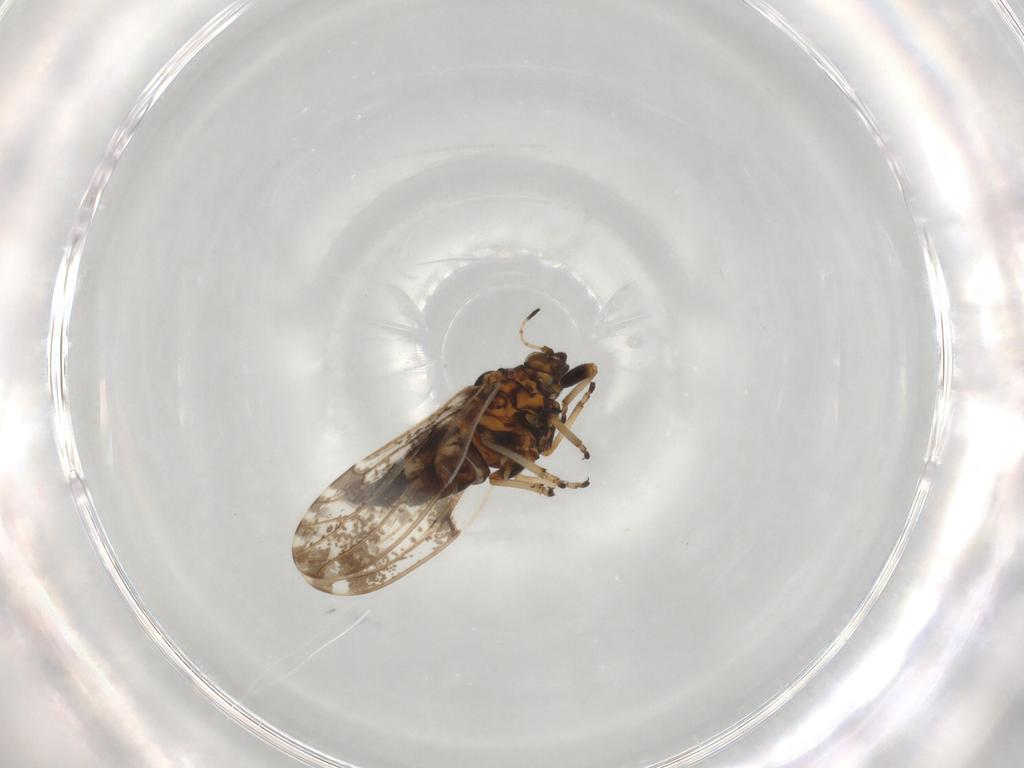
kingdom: Animalia
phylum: Arthropoda
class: Insecta
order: Hemiptera
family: Psylloidea_incertae_sedis
